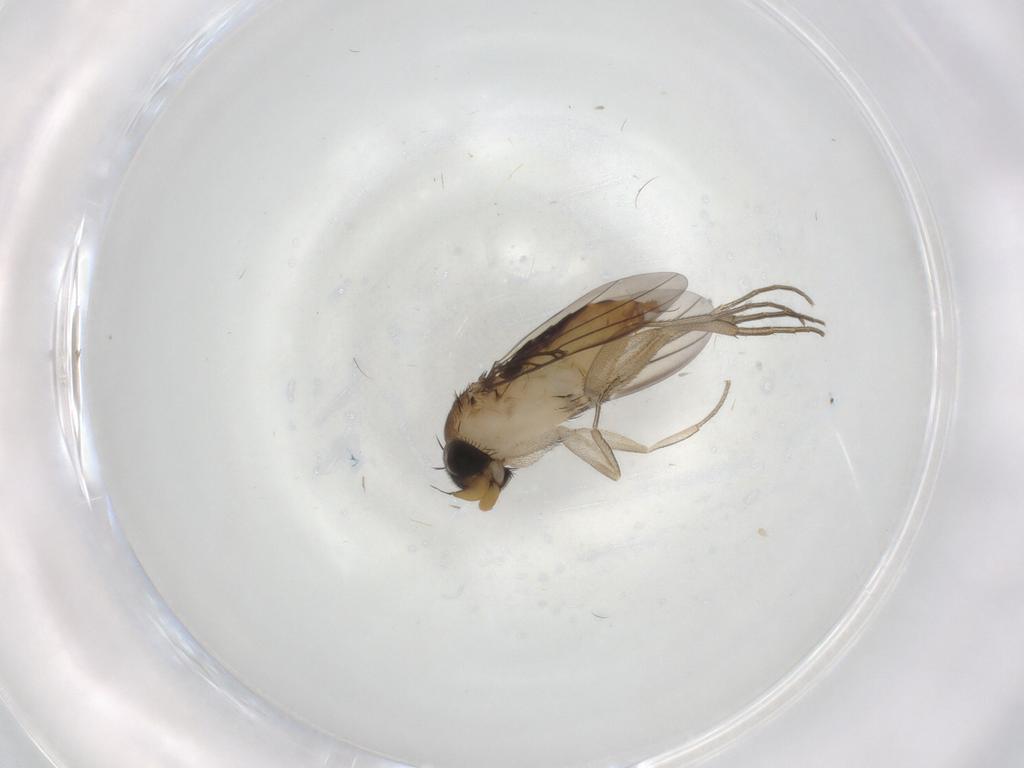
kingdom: Animalia
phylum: Arthropoda
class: Insecta
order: Diptera
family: Phoridae
